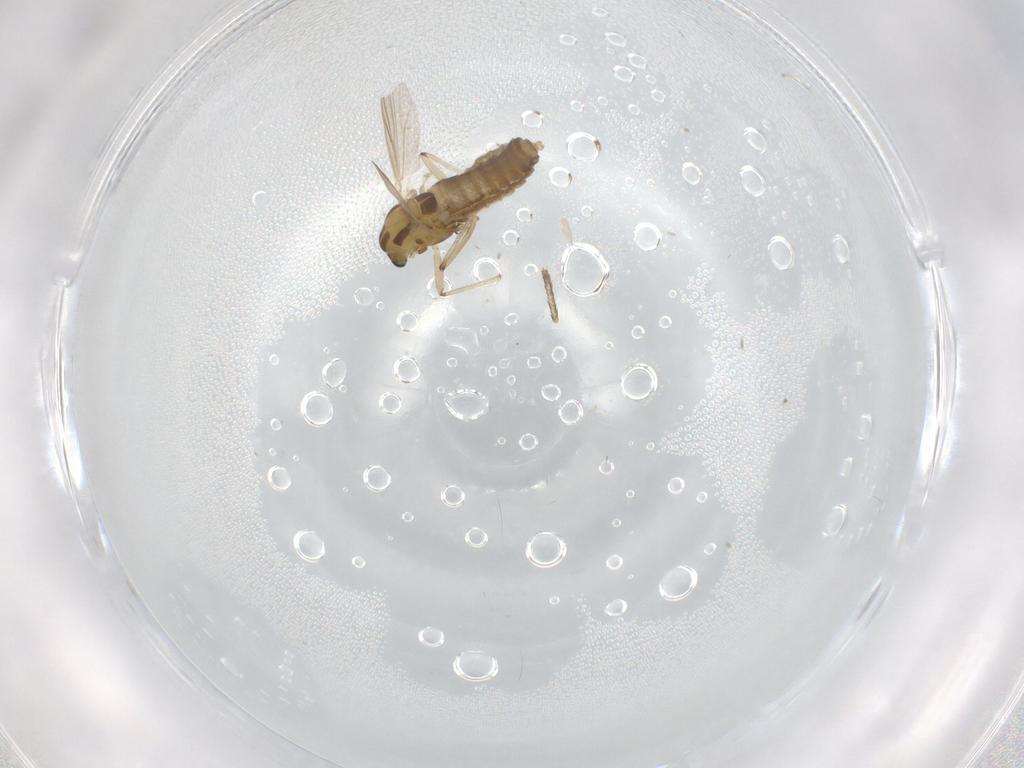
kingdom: Animalia
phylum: Arthropoda
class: Insecta
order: Diptera
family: Chironomidae
